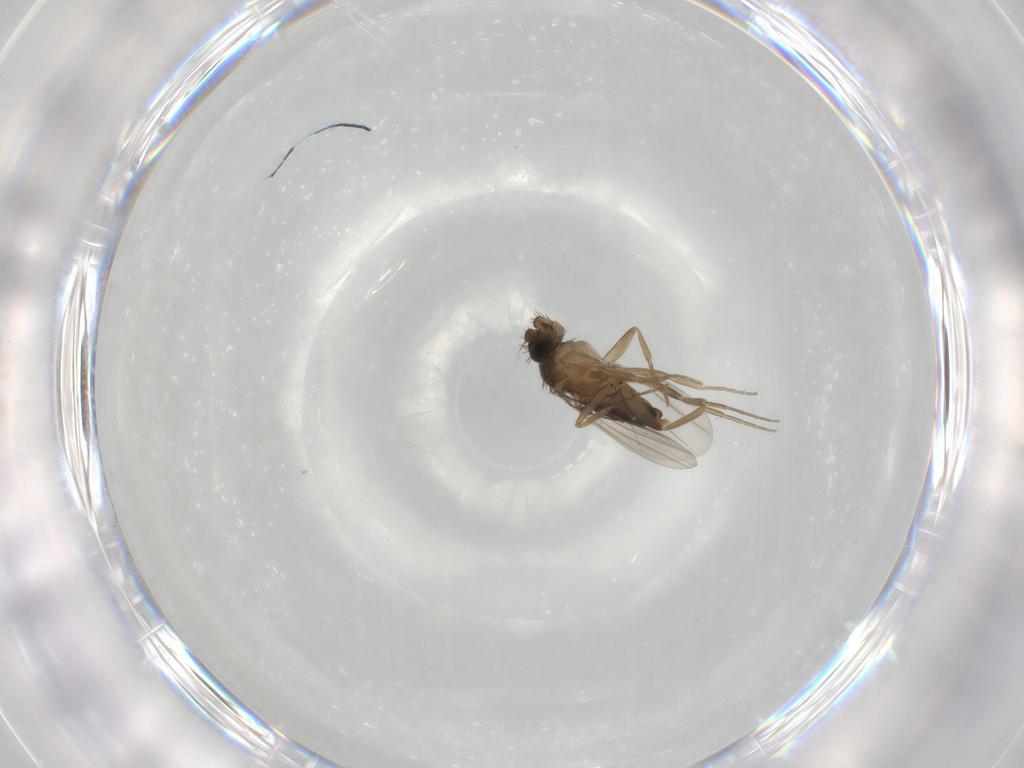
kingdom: Animalia
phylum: Arthropoda
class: Insecta
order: Diptera
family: Phoridae
